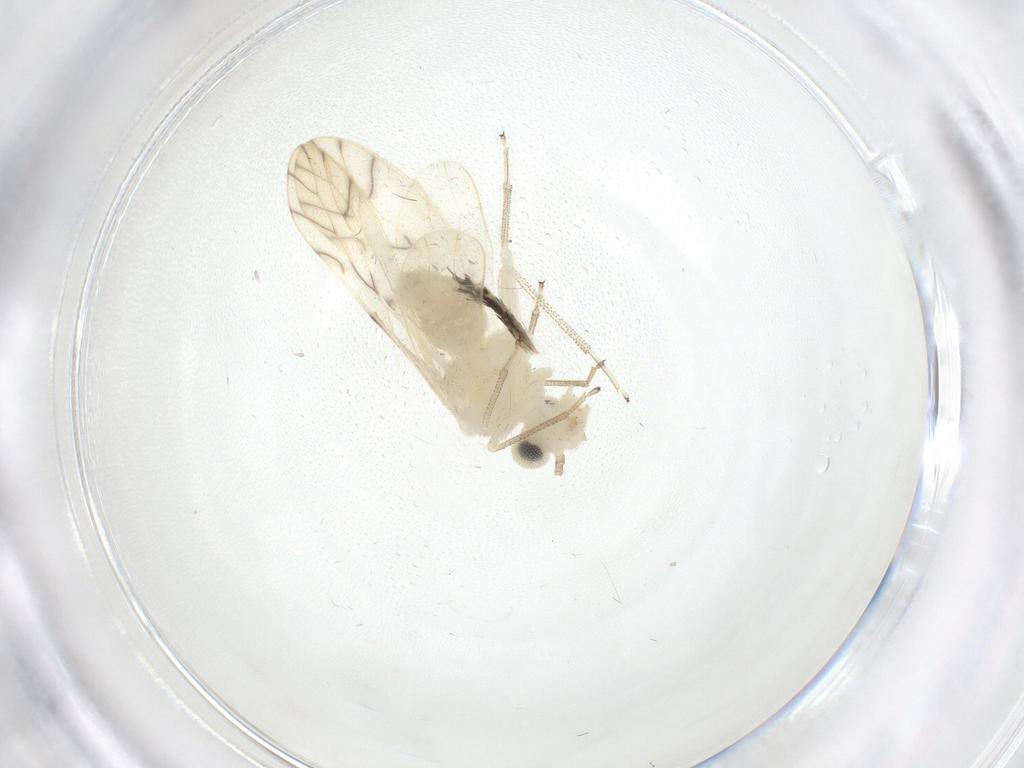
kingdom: Animalia
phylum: Arthropoda
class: Insecta
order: Psocodea
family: Caeciliusidae
